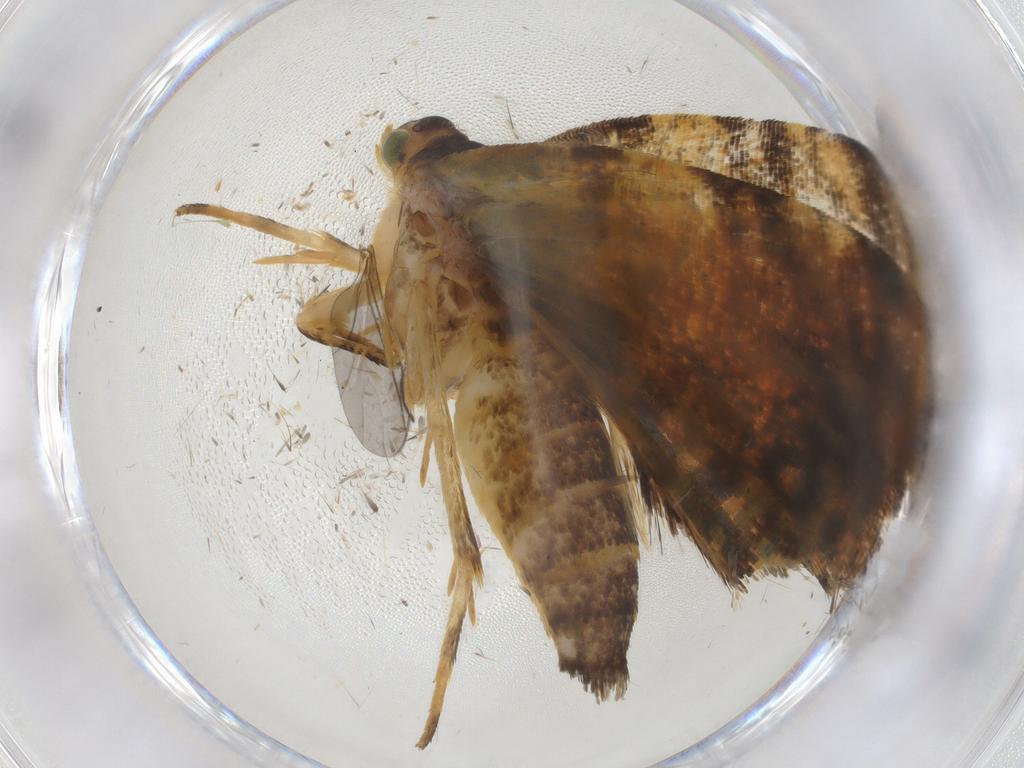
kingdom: Animalia
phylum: Arthropoda
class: Insecta
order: Lepidoptera
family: Tortricidae
